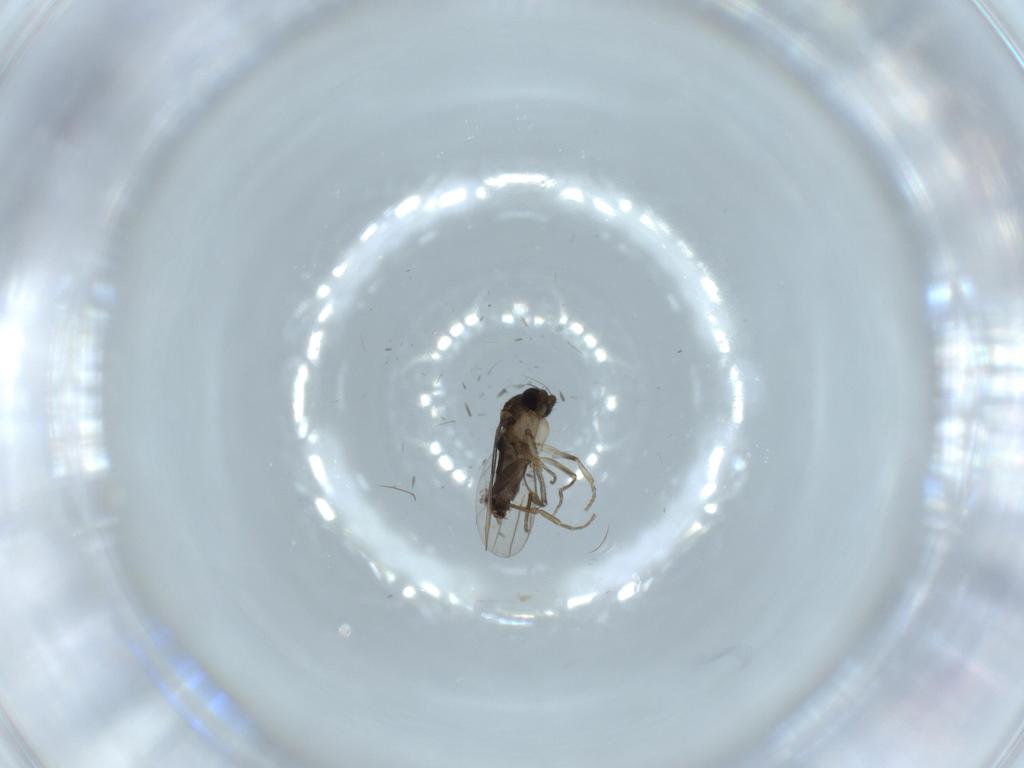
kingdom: Animalia
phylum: Arthropoda
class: Insecta
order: Diptera
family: Phoridae
